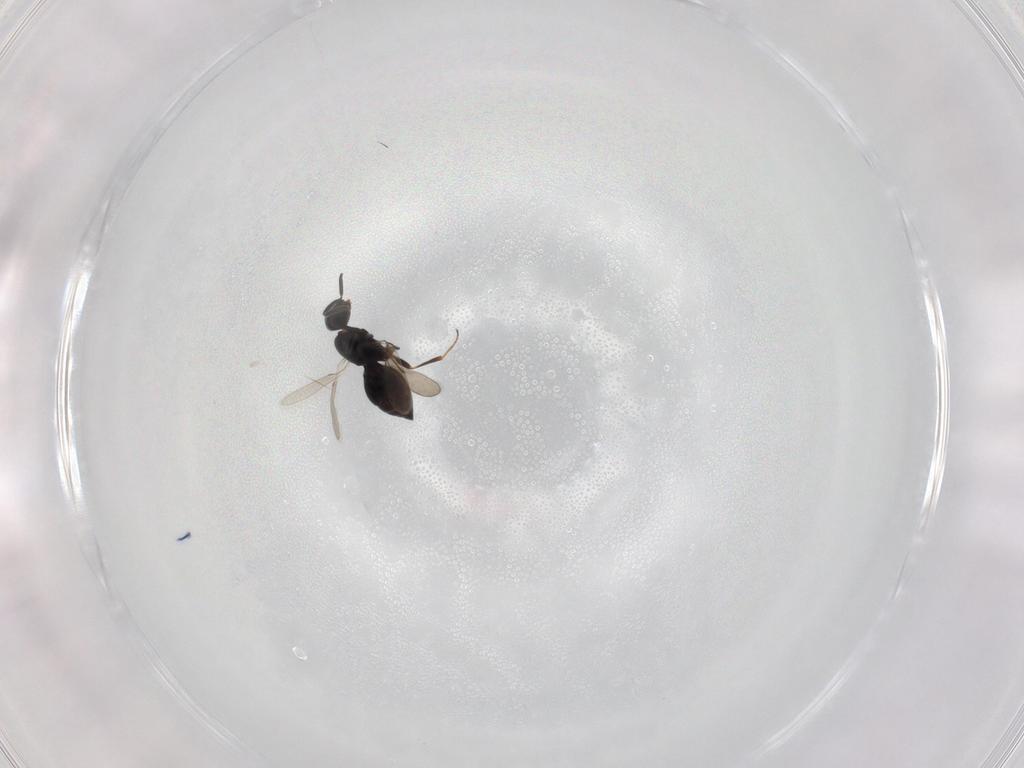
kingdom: Animalia
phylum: Arthropoda
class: Insecta
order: Hymenoptera
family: Scelionidae
